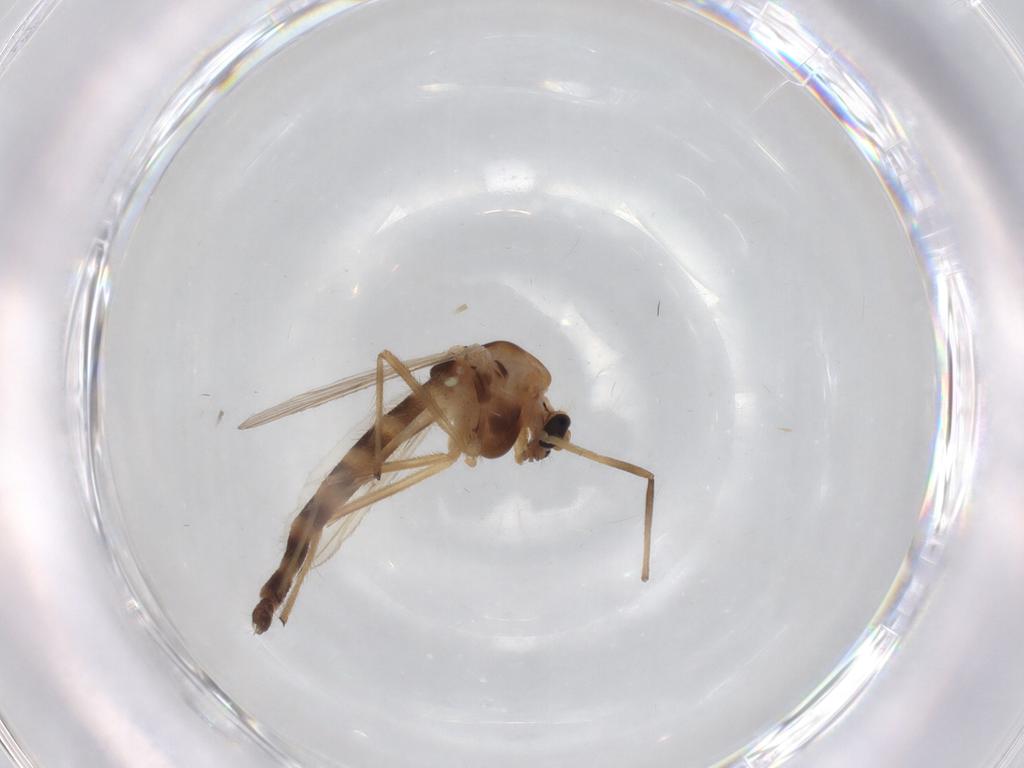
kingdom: Animalia
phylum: Arthropoda
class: Insecta
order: Diptera
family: Chironomidae
